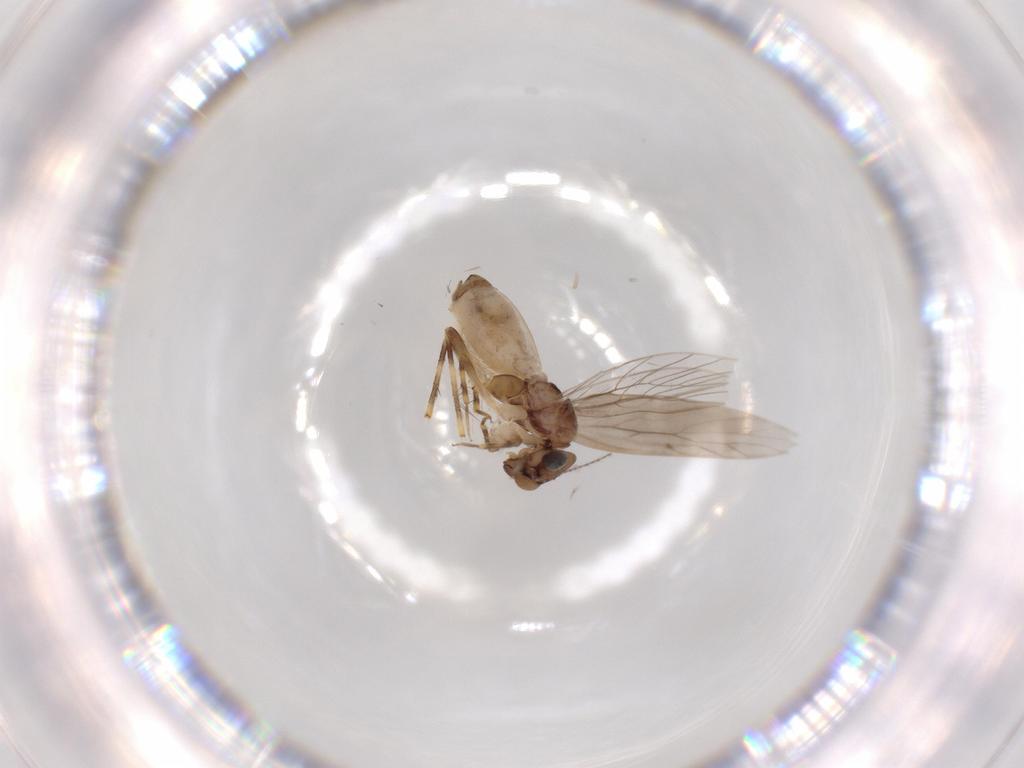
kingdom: Animalia
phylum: Arthropoda
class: Insecta
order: Psocodea
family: Lepidopsocidae
